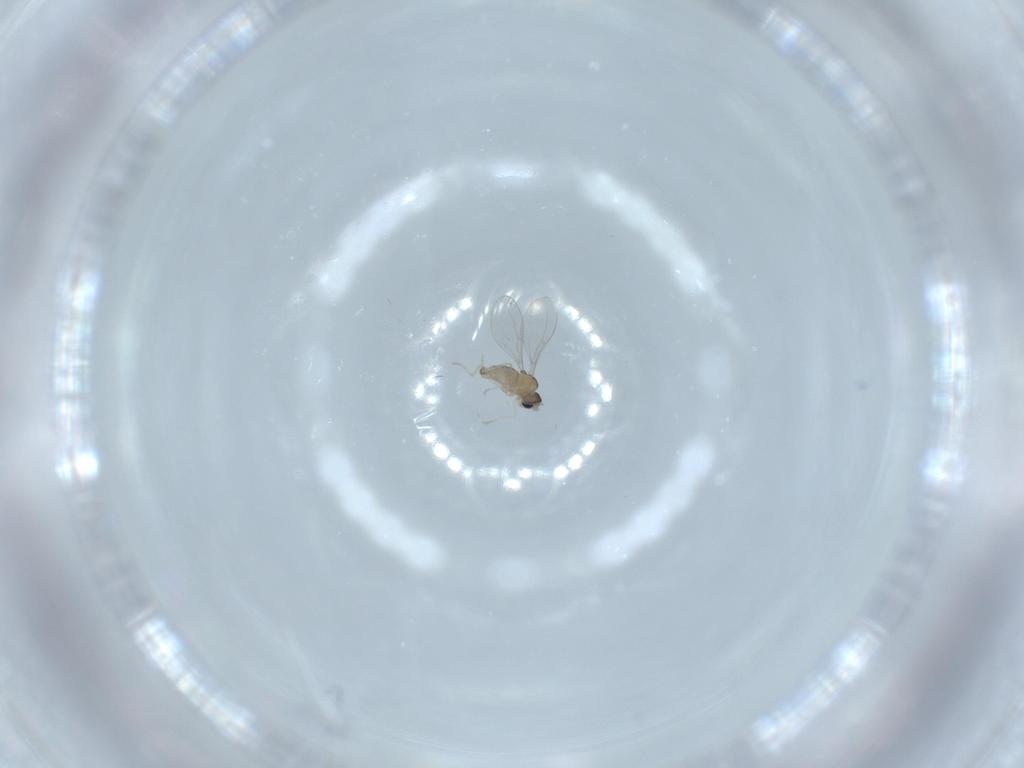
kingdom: Animalia
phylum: Arthropoda
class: Insecta
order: Diptera
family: Cecidomyiidae
